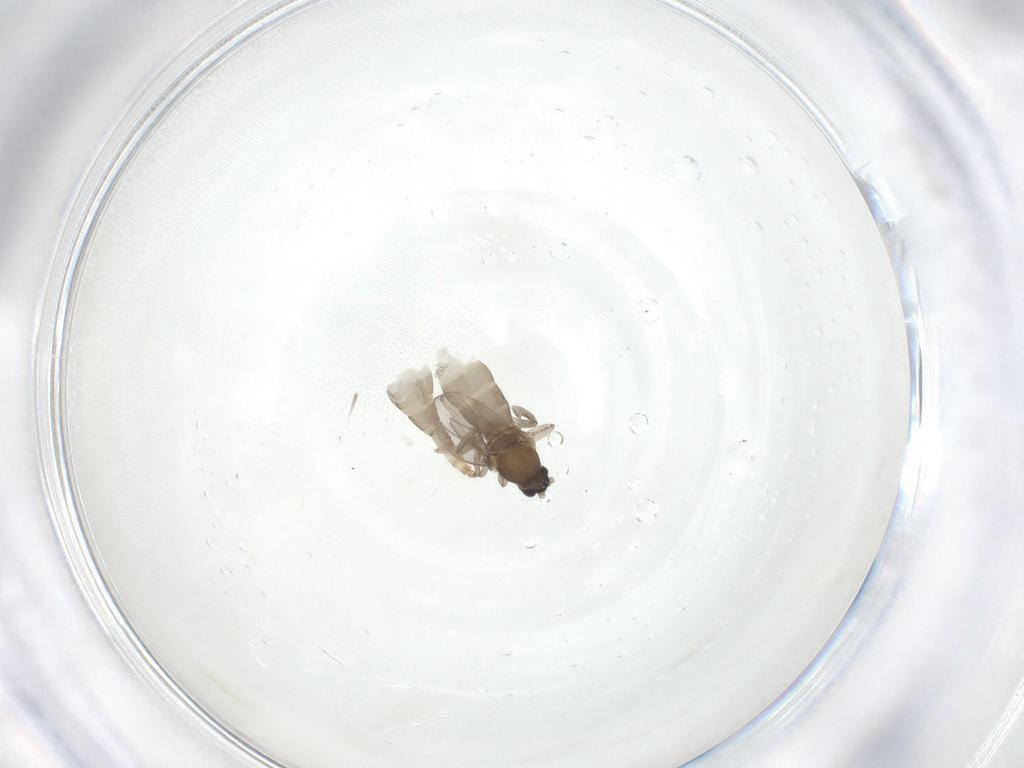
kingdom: Animalia
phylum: Arthropoda
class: Insecta
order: Diptera
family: Cecidomyiidae
